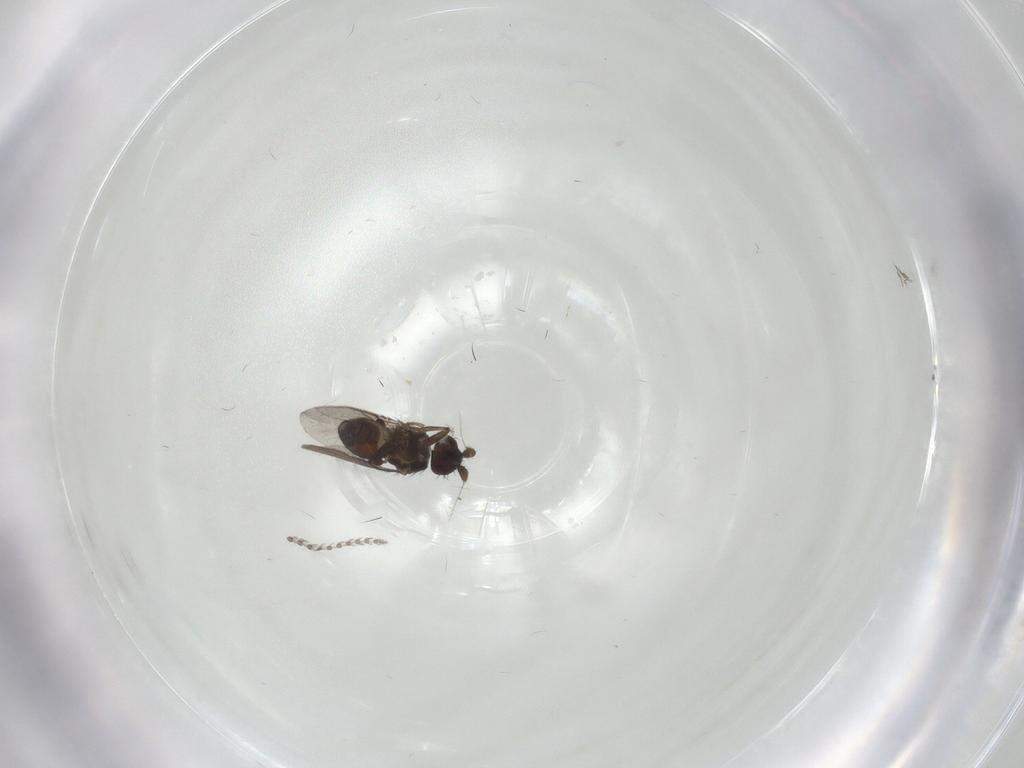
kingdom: Animalia
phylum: Arthropoda
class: Insecta
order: Diptera
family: Sphaeroceridae
